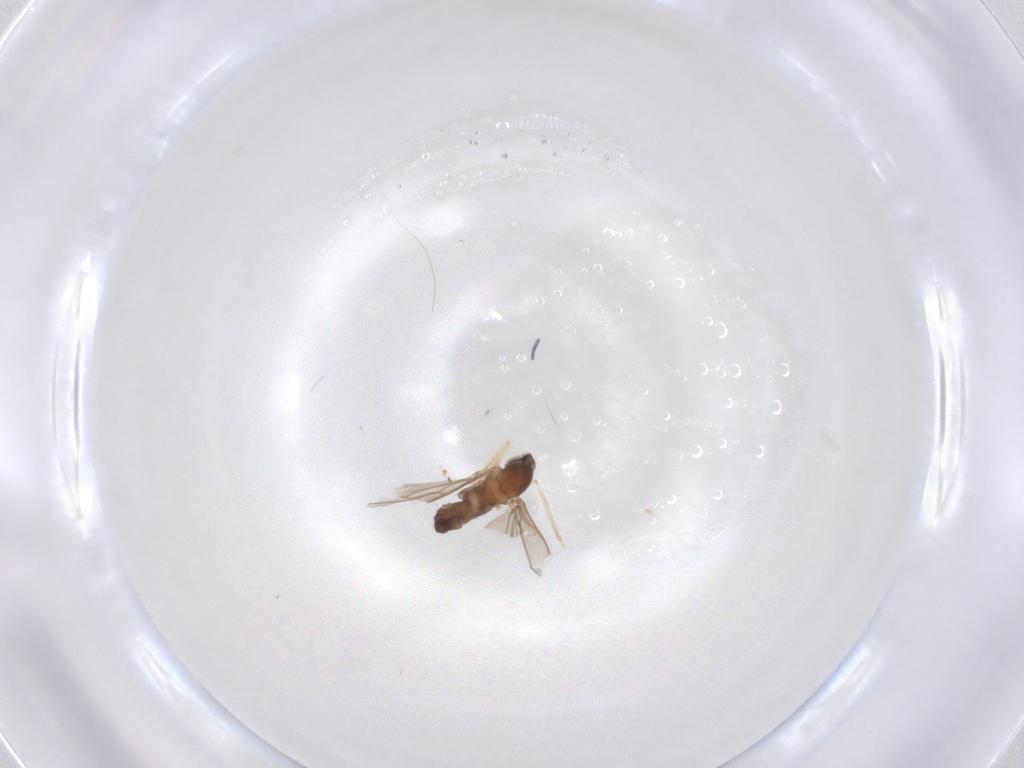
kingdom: Animalia
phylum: Arthropoda
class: Insecta
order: Diptera
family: Cecidomyiidae
